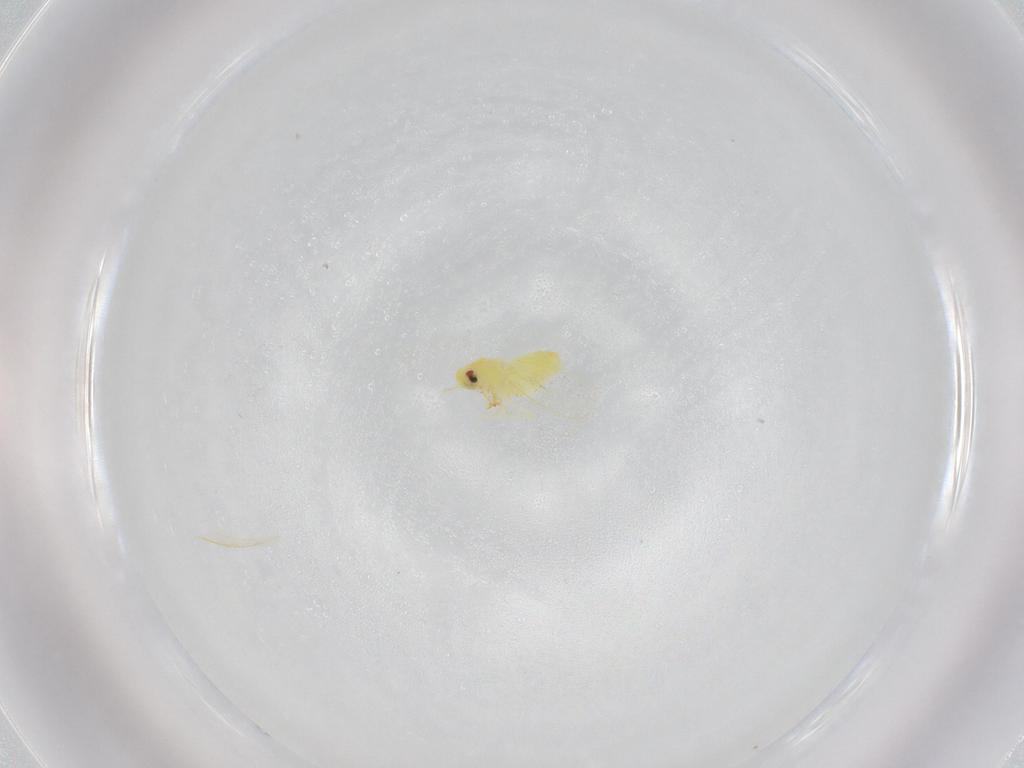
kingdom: Animalia
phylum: Arthropoda
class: Insecta
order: Hemiptera
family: Aleyrodidae
